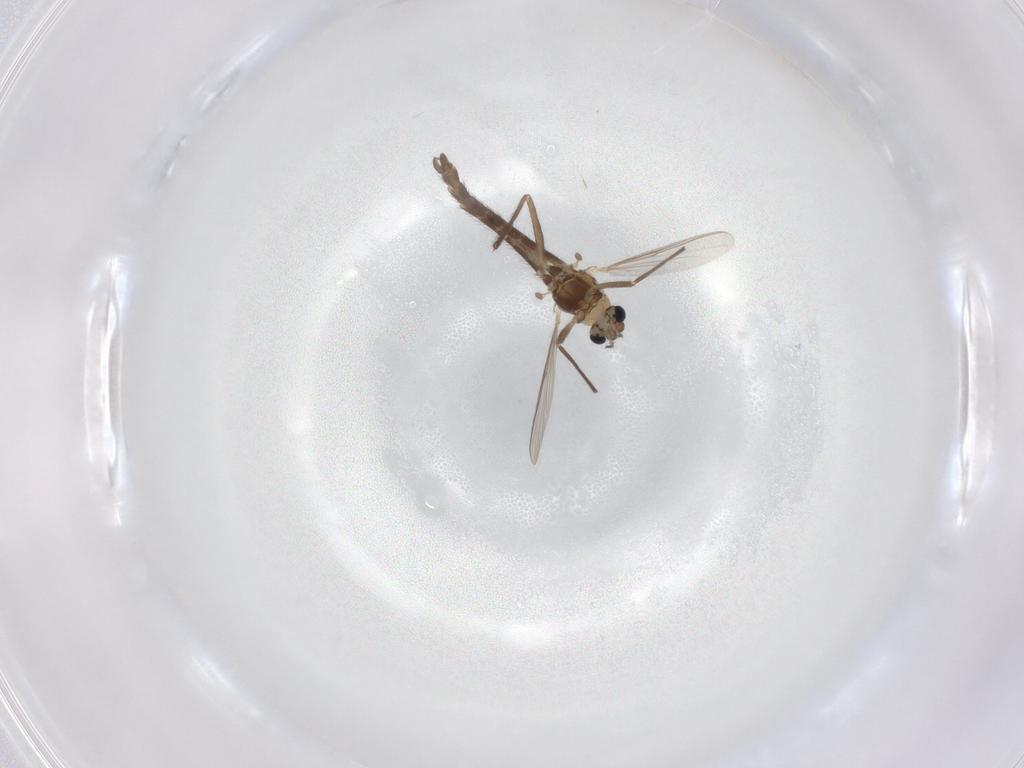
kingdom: Animalia
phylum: Arthropoda
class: Insecta
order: Diptera
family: Chironomidae
